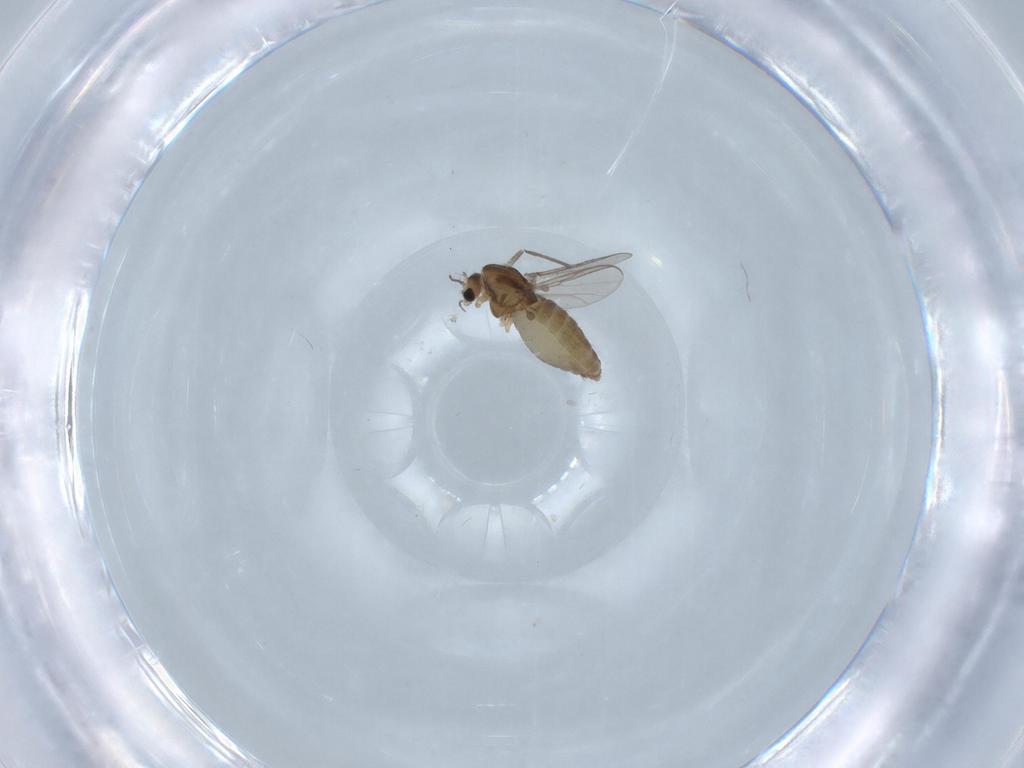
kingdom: Animalia
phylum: Arthropoda
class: Insecta
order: Diptera
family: Chironomidae
